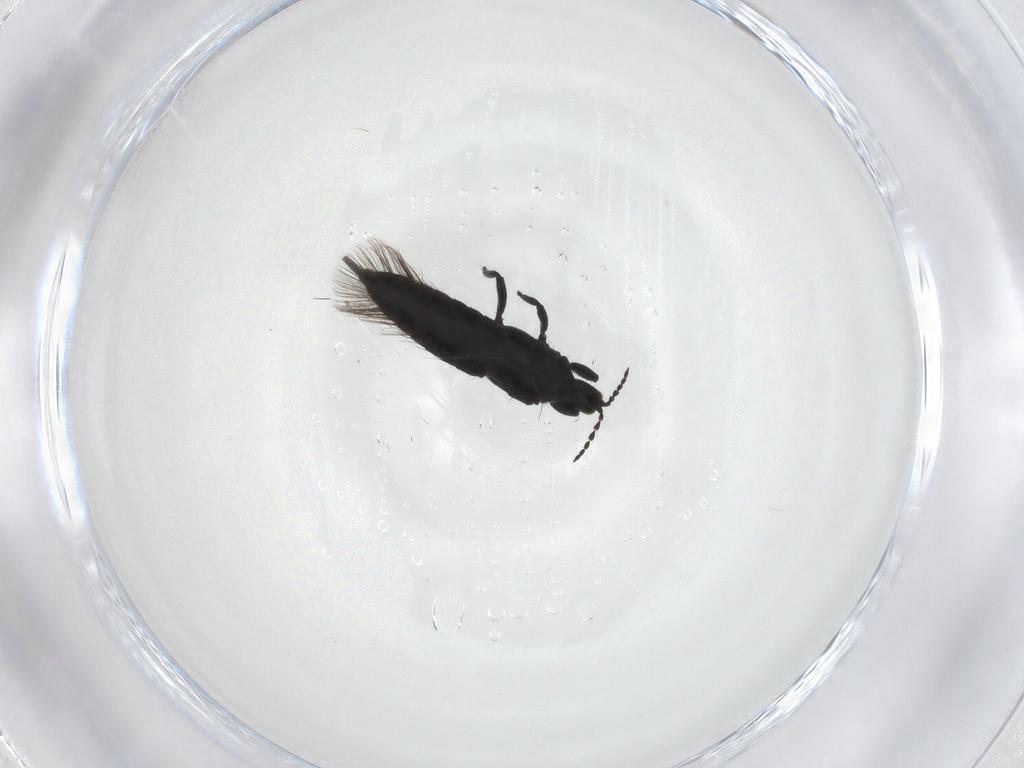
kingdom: Animalia
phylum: Arthropoda
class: Insecta
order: Thysanoptera
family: Phlaeothripidae
